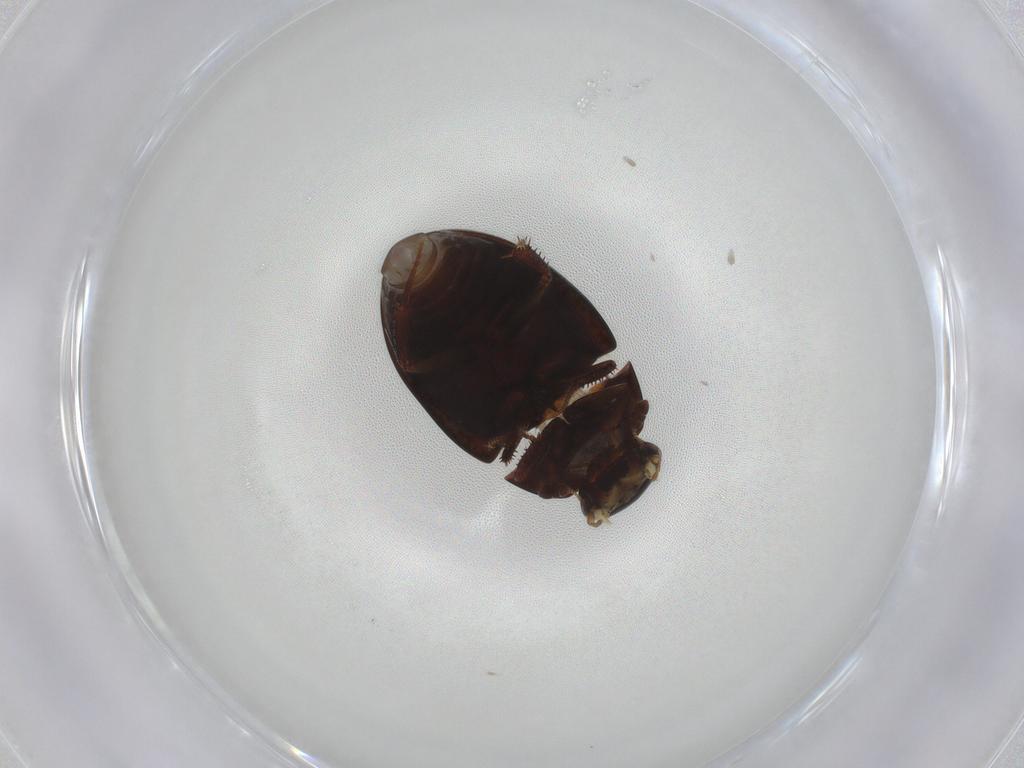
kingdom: Animalia
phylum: Arthropoda
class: Insecta
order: Coleoptera
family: Hydrophilidae
